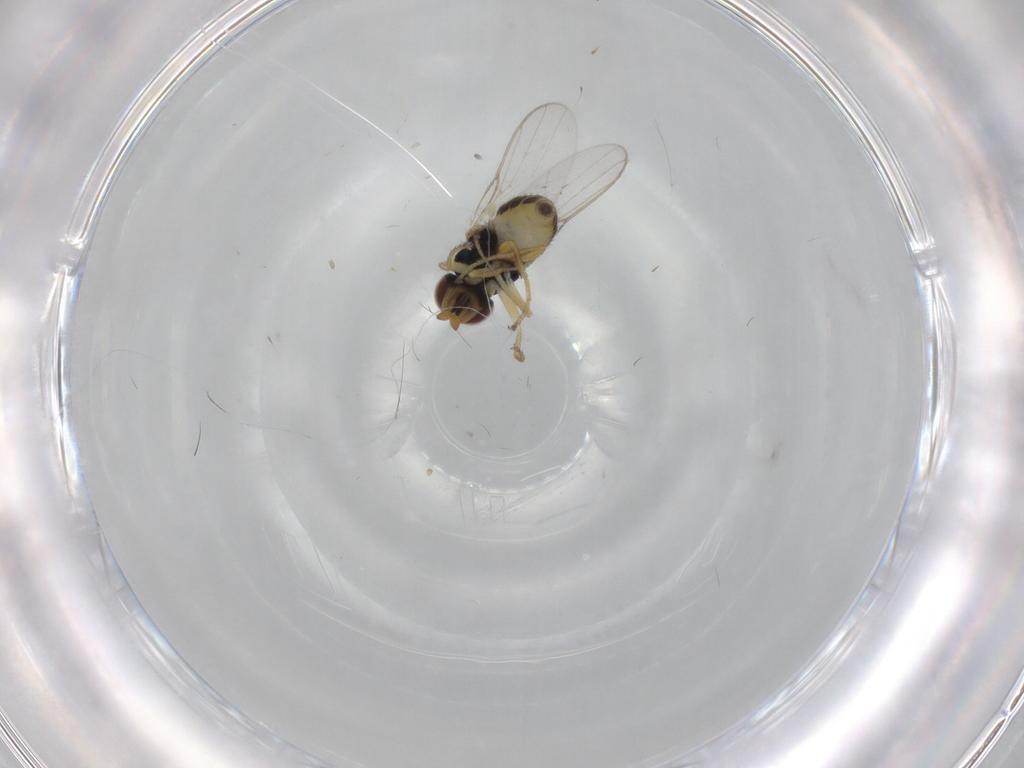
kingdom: Animalia
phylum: Arthropoda
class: Insecta
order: Diptera
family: Chloropidae
